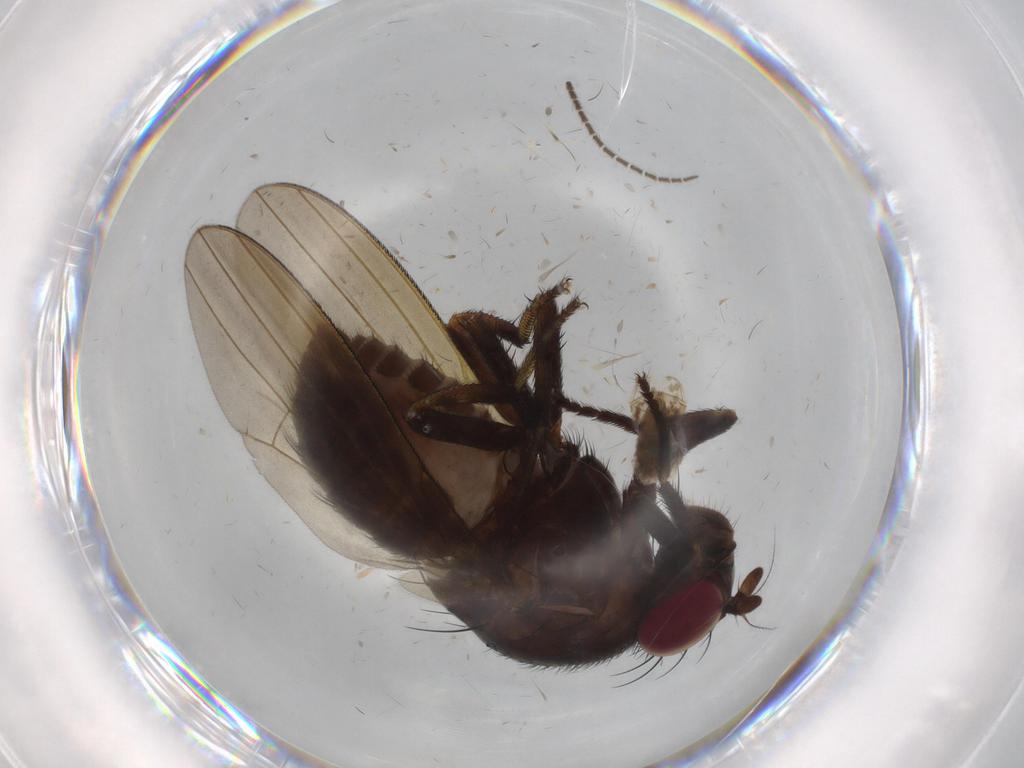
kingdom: Animalia
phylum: Arthropoda
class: Insecta
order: Diptera
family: Lauxaniidae
